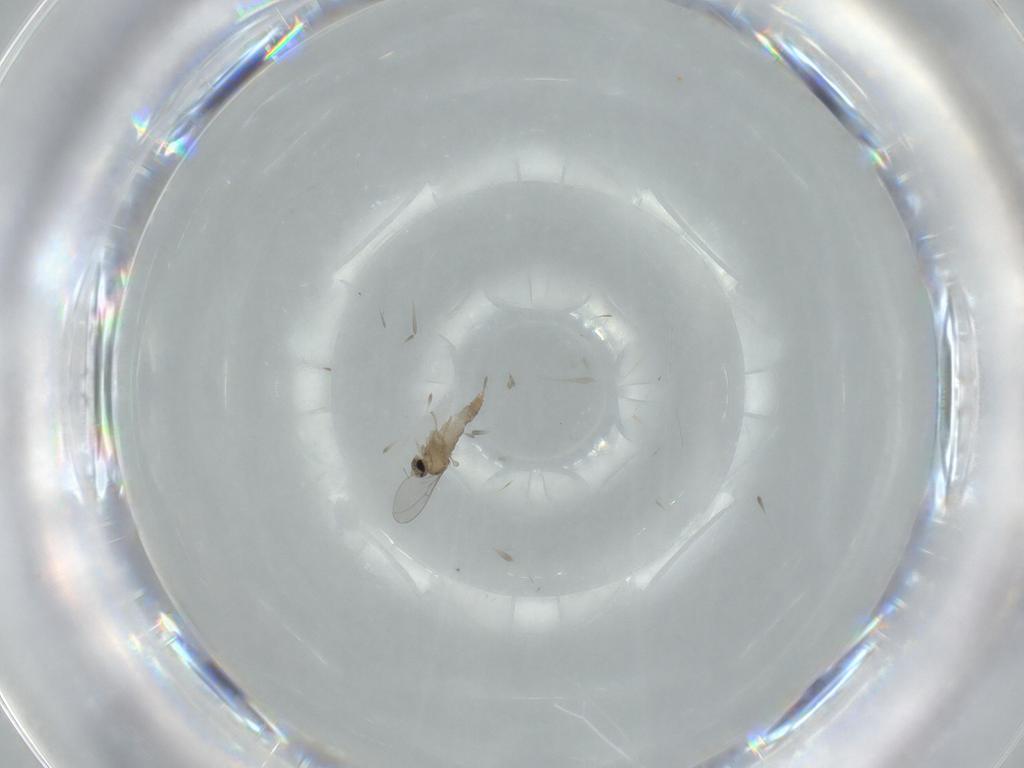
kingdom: Animalia
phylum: Arthropoda
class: Insecta
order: Diptera
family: Cecidomyiidae
